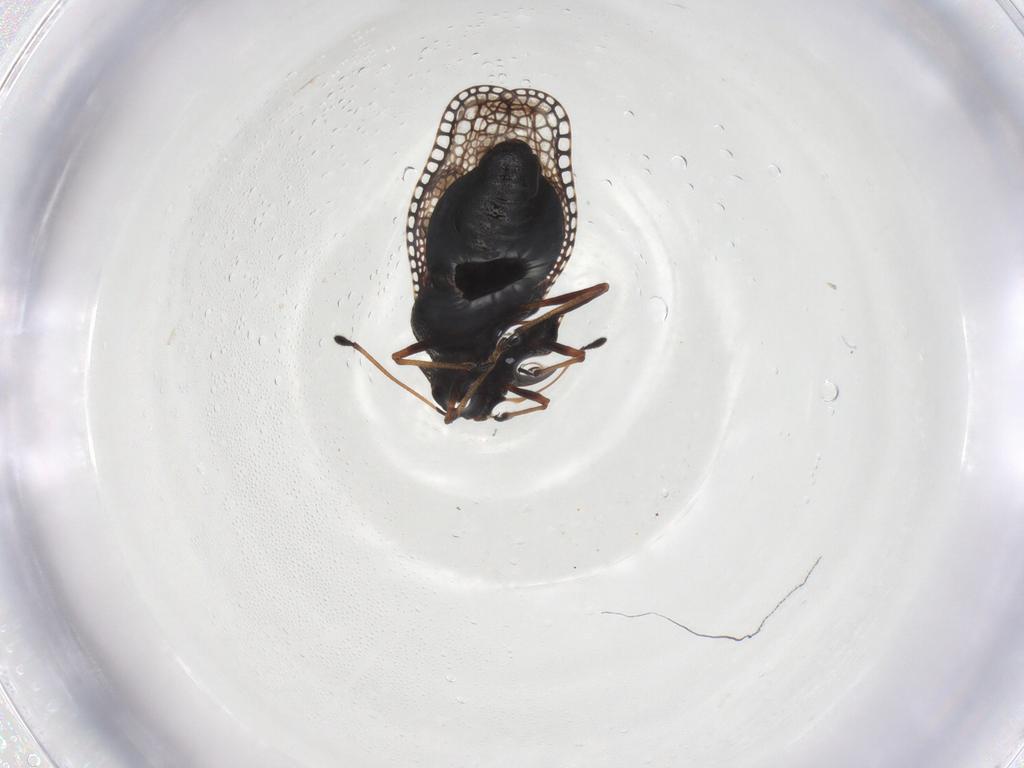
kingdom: Animalia
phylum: Arthropoda
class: Insecta
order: Hemiptera
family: Tingidae
